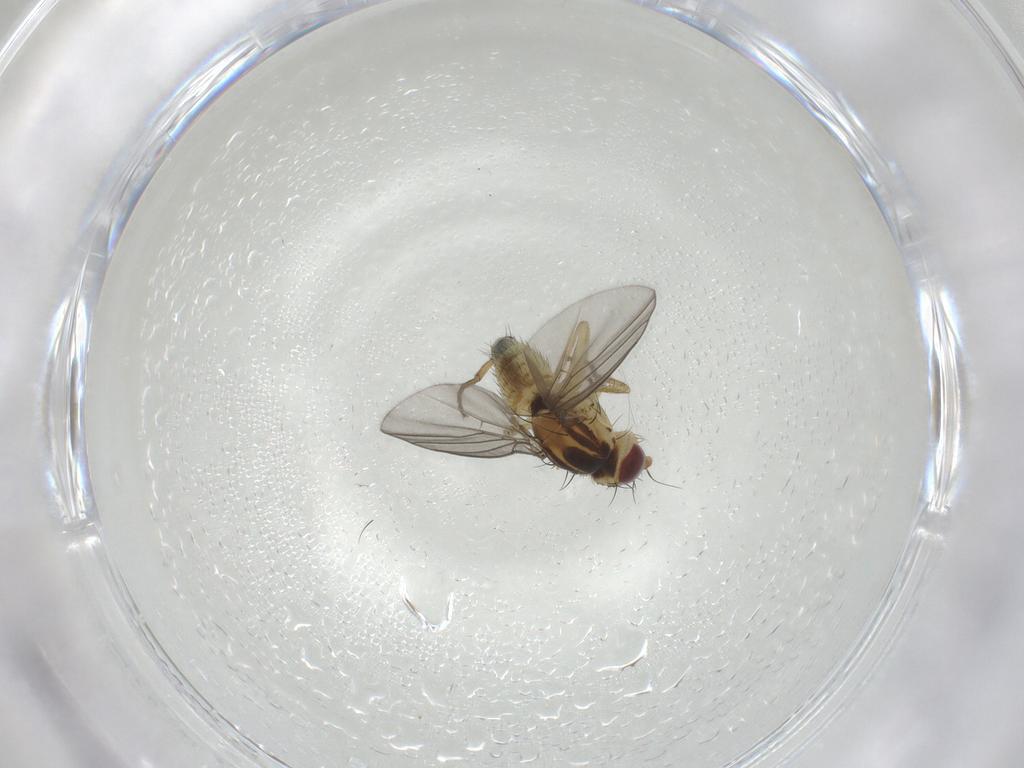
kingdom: Animalia
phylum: Arthropoda
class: Insecta
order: Diptera
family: Agromyzidae
